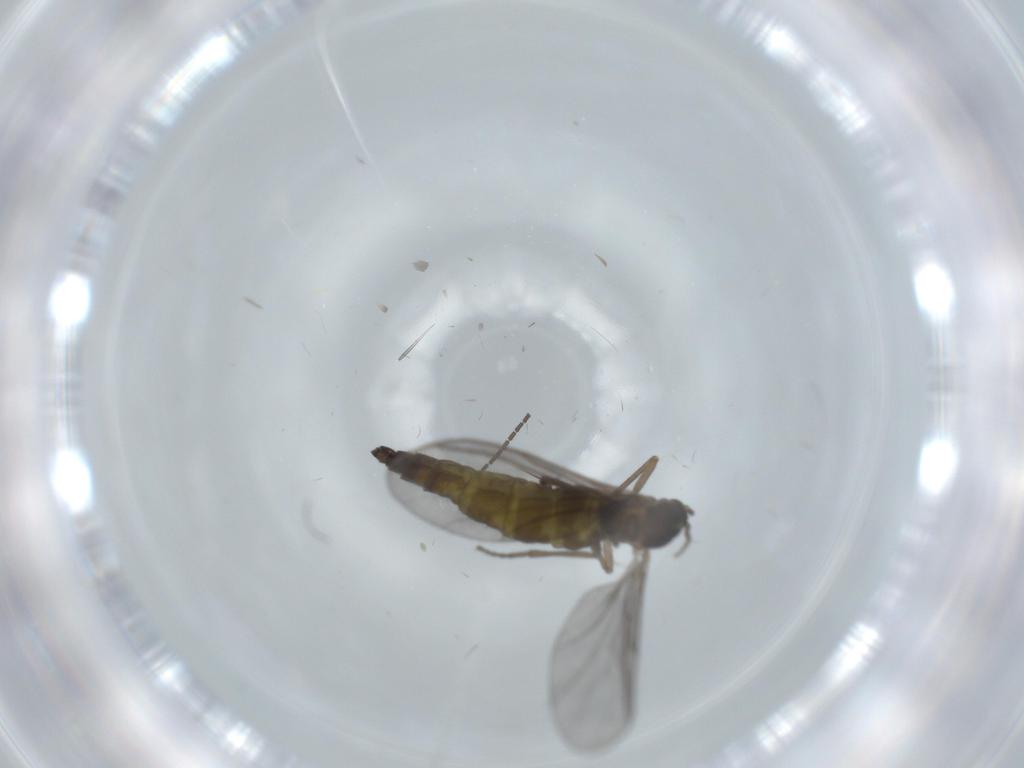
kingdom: Animalia
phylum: Arthropoda
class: Insecta
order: Diptera
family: Sciaridae
